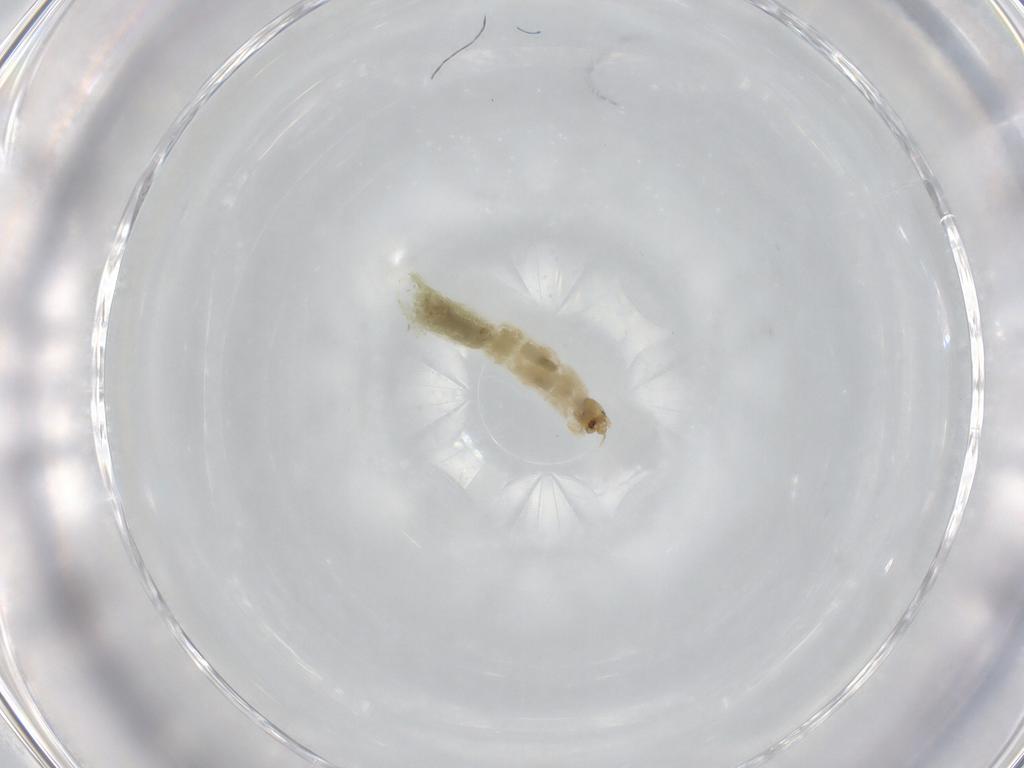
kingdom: Animalia
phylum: Arthropoda
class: Insecta
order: Diptera
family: Chironomidae
